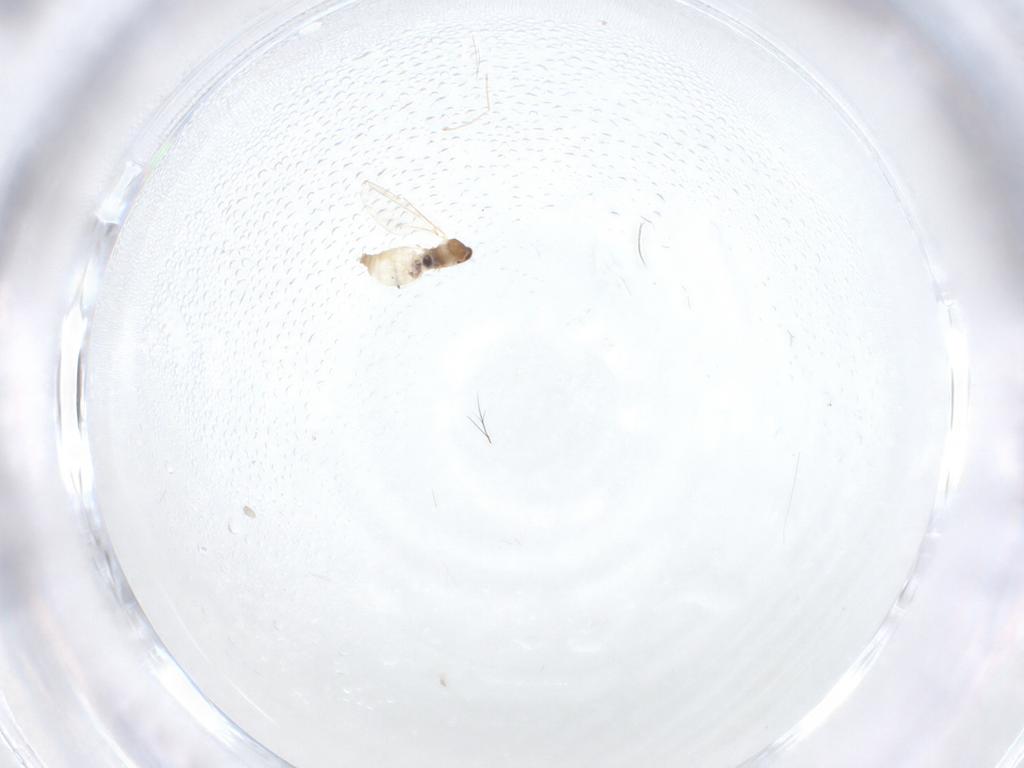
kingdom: Animalia
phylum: Arthropoda
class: Insecta
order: Diptera
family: Cecidomyiidae
